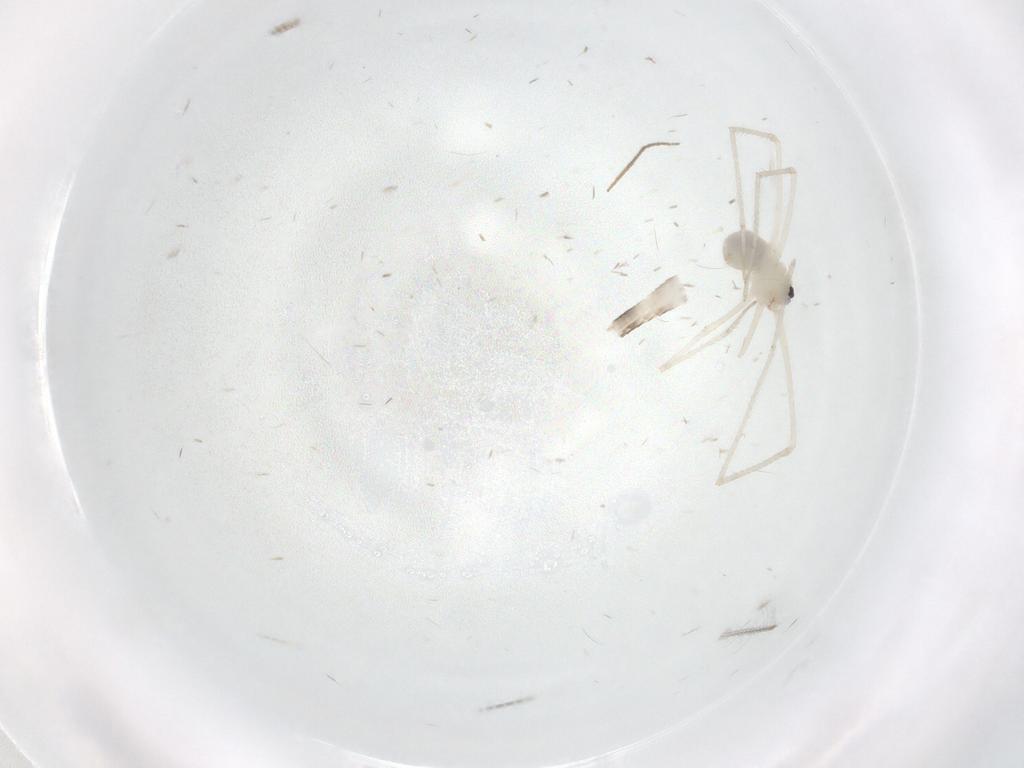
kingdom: Animalia
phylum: Arthropoda
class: Arachnida
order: Araneae
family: Pholcidae
